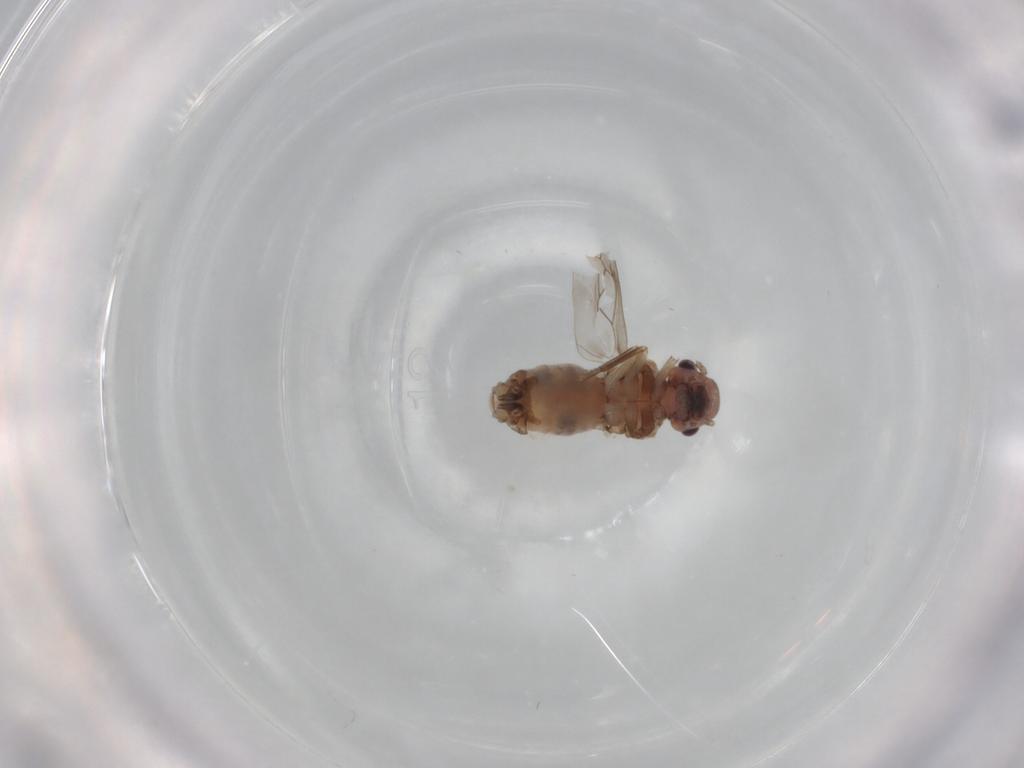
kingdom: Animalia
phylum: Arthropoda
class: Insecta
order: Psocodea
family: Peripsocidae
